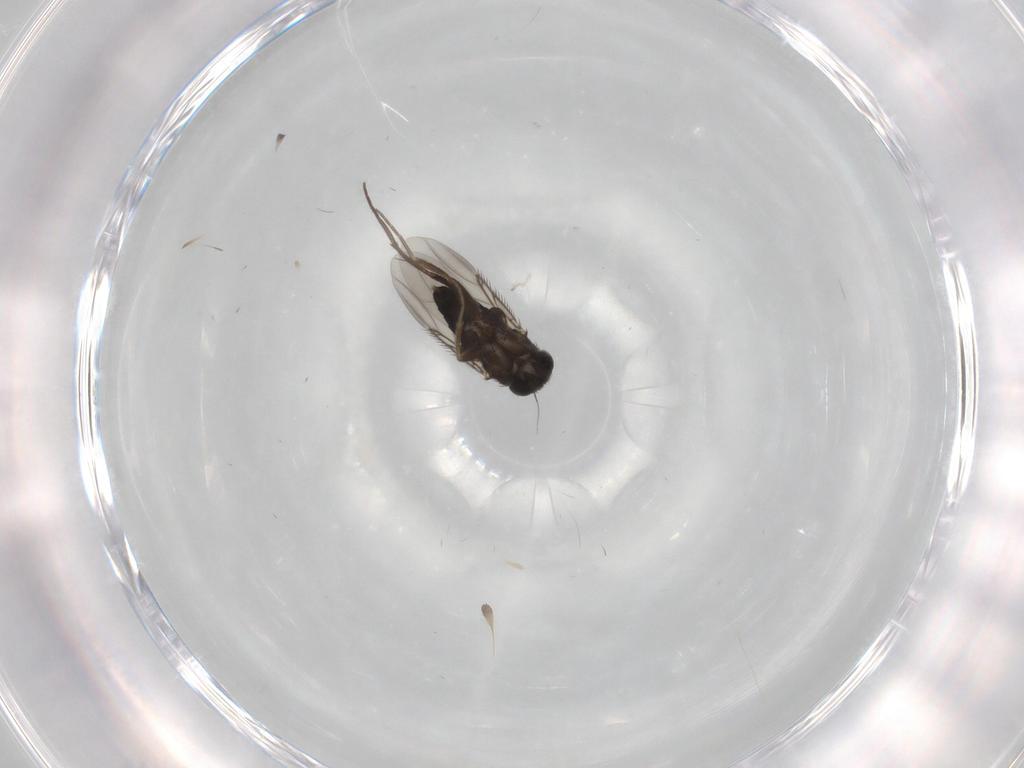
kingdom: Animalia
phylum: Arthropoda
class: Insecta
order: Diptera
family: Phoridae
